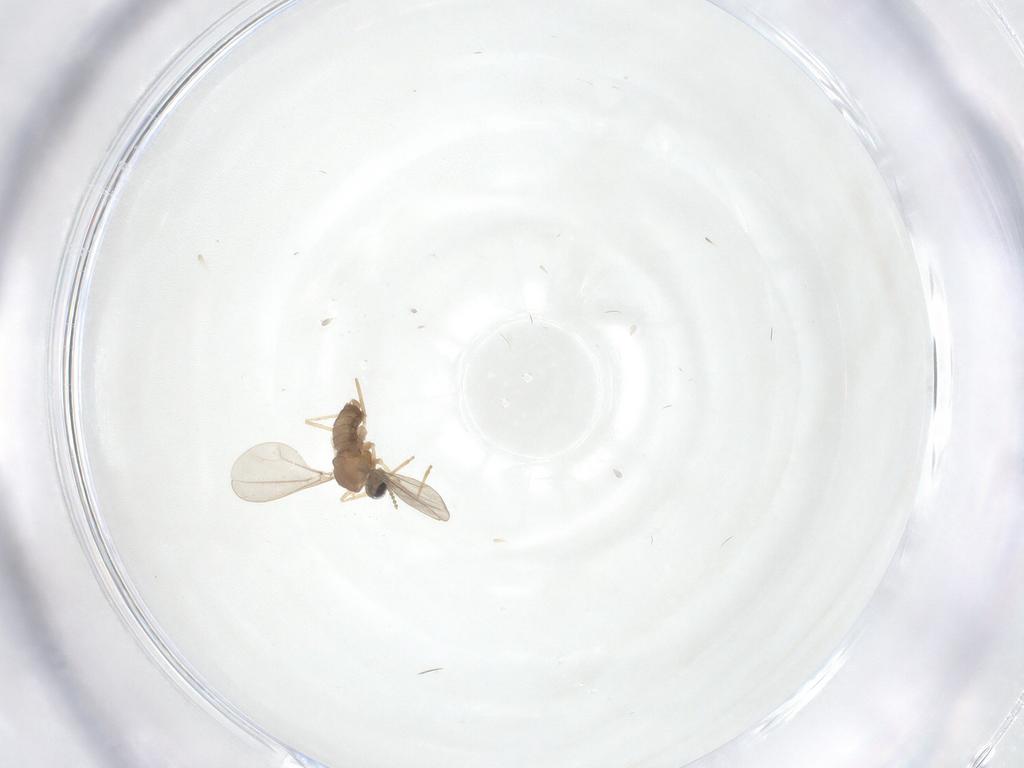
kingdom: Animalia
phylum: Arthropoda
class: Insecta
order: Diptera
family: Cecidomyiidae
